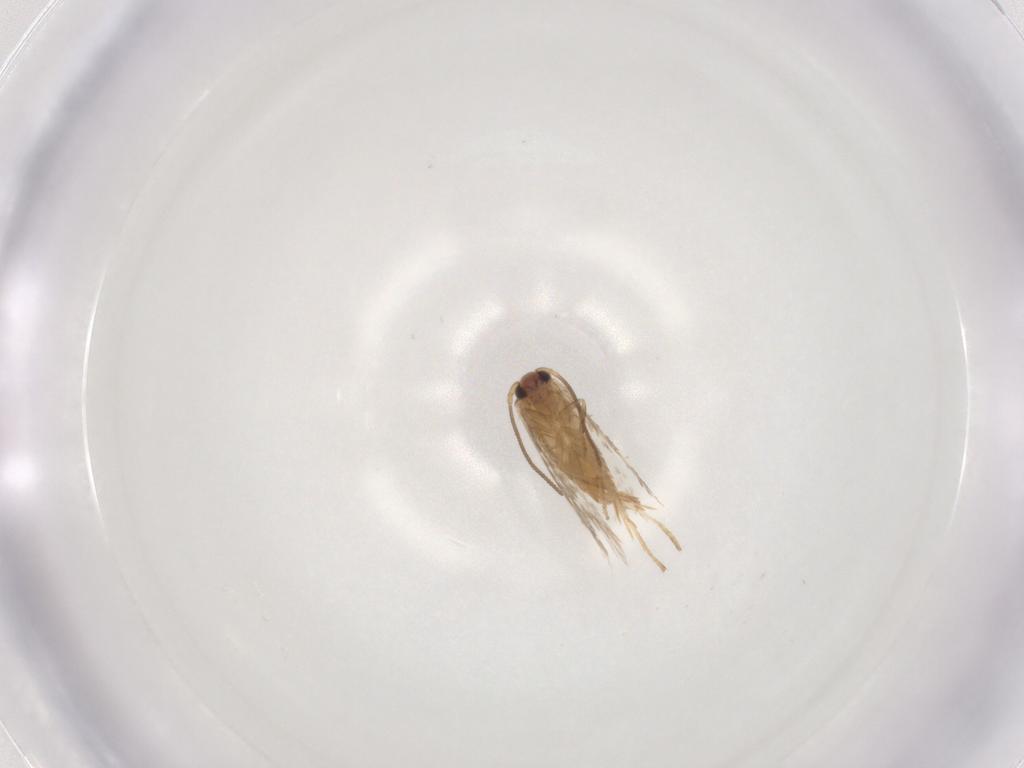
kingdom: Animalia
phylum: Arthropoda
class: Insecta
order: Lepidoptera
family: Nepticulidae
